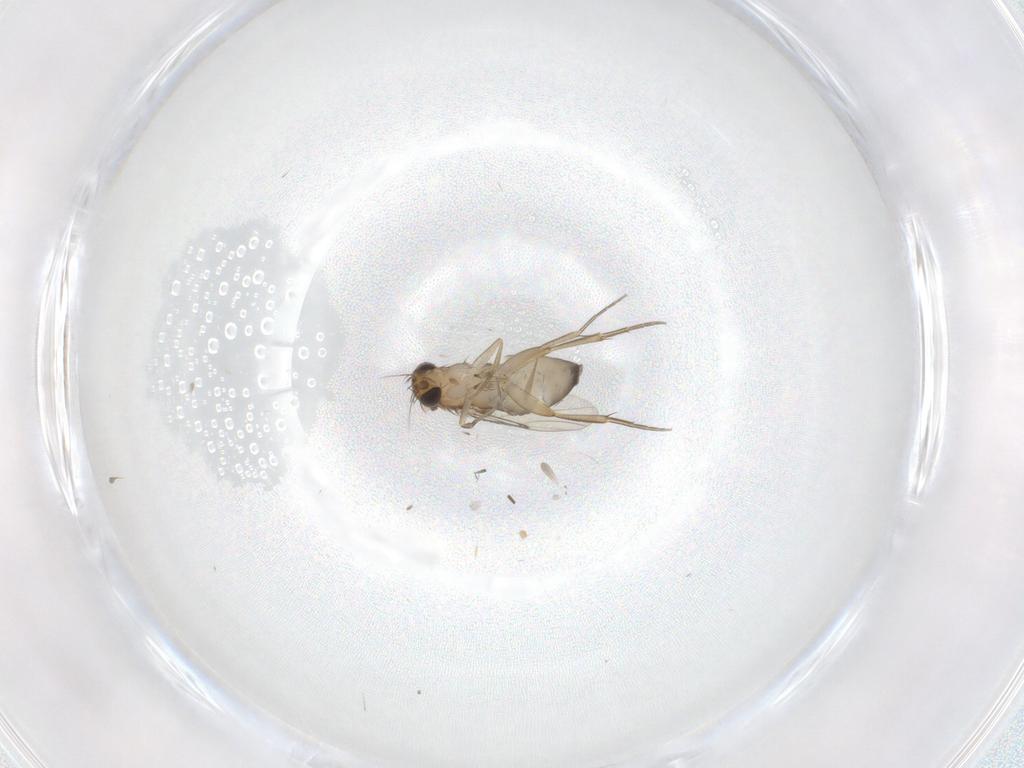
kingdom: Animalia
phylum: Arthropoda
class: Insecta
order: Diptera
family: Phoridae
